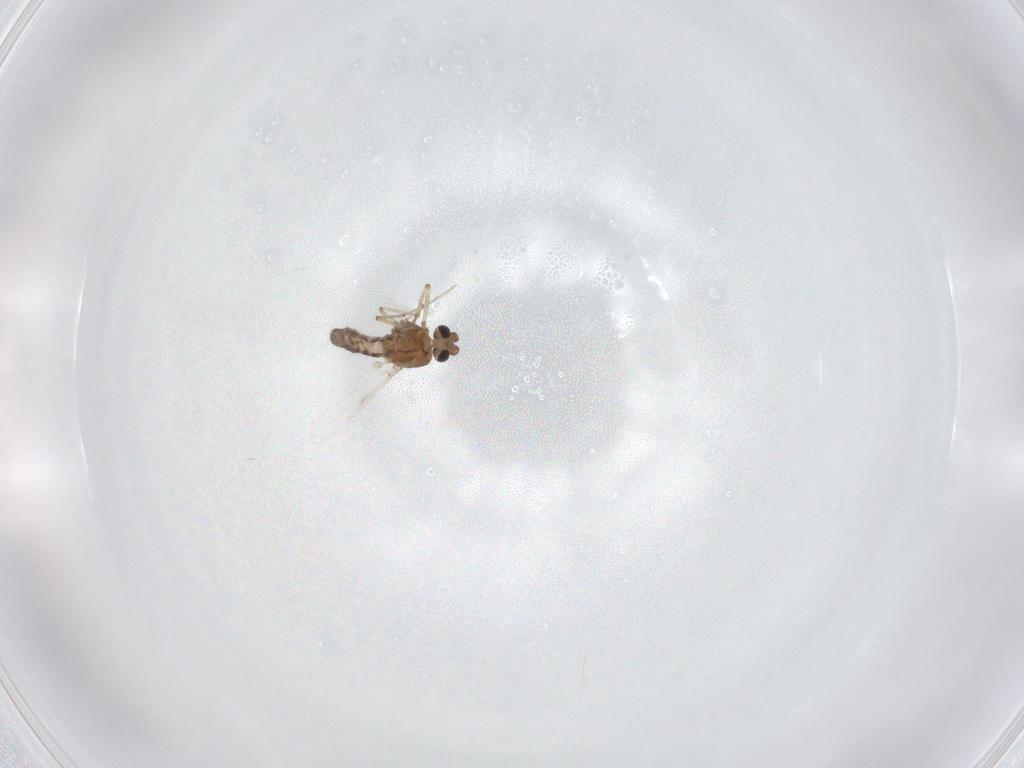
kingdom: Animalia
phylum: Arthropoda
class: Insecta
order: Diptera
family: Ceratopogonidae
